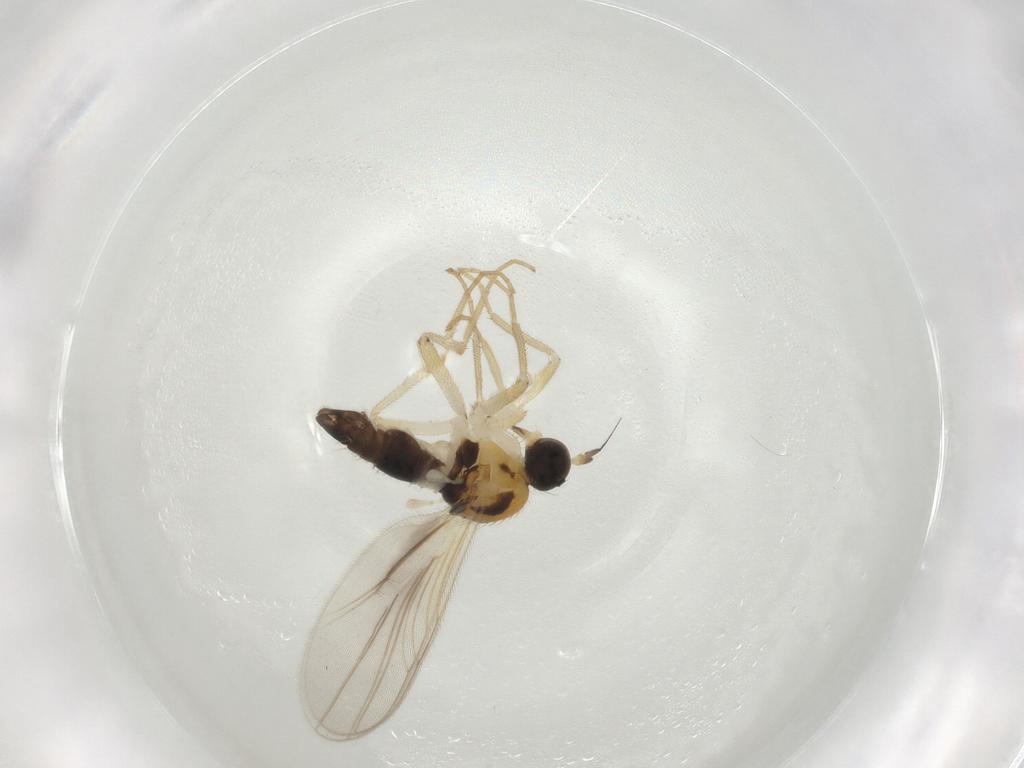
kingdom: Animalia
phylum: Arthropoda
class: Insecta
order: Diptera
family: Hybotidae
